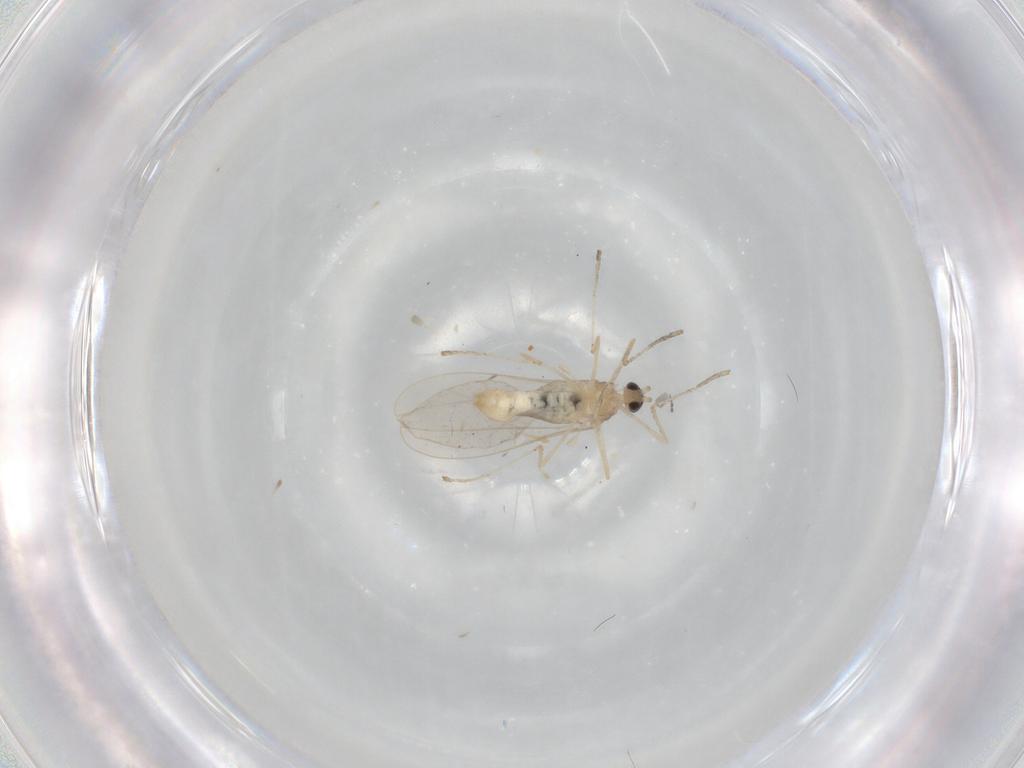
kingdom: Animalia
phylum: Arthropoda
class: Insecta
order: Diptera
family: Cecidomyiidae
